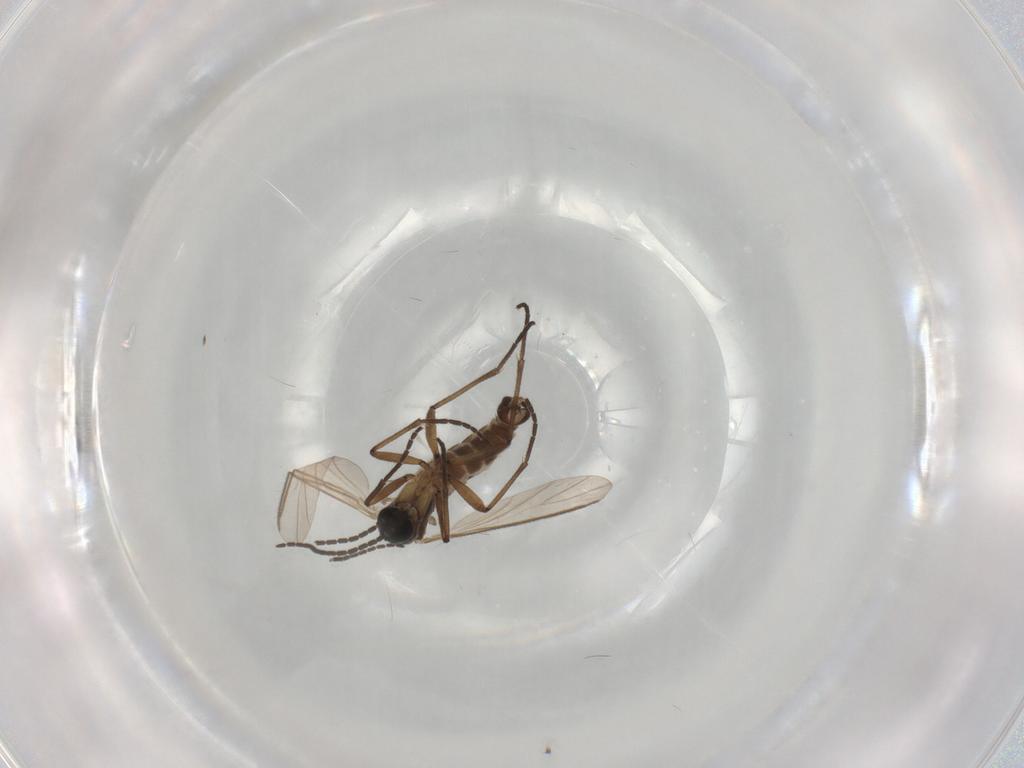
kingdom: Animalia
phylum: Arthropoda
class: Insecta
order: Diptera
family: Sciaridae
